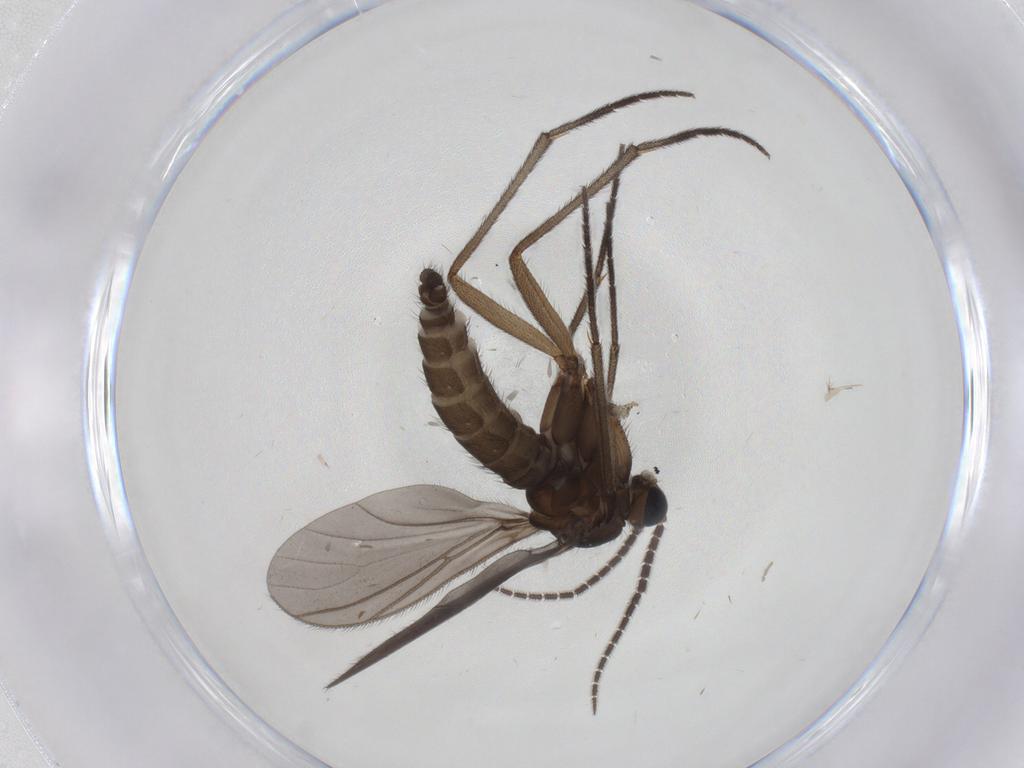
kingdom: Animalia
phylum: Arthropoda
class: Insecta
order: Diptera
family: Sciaridae
